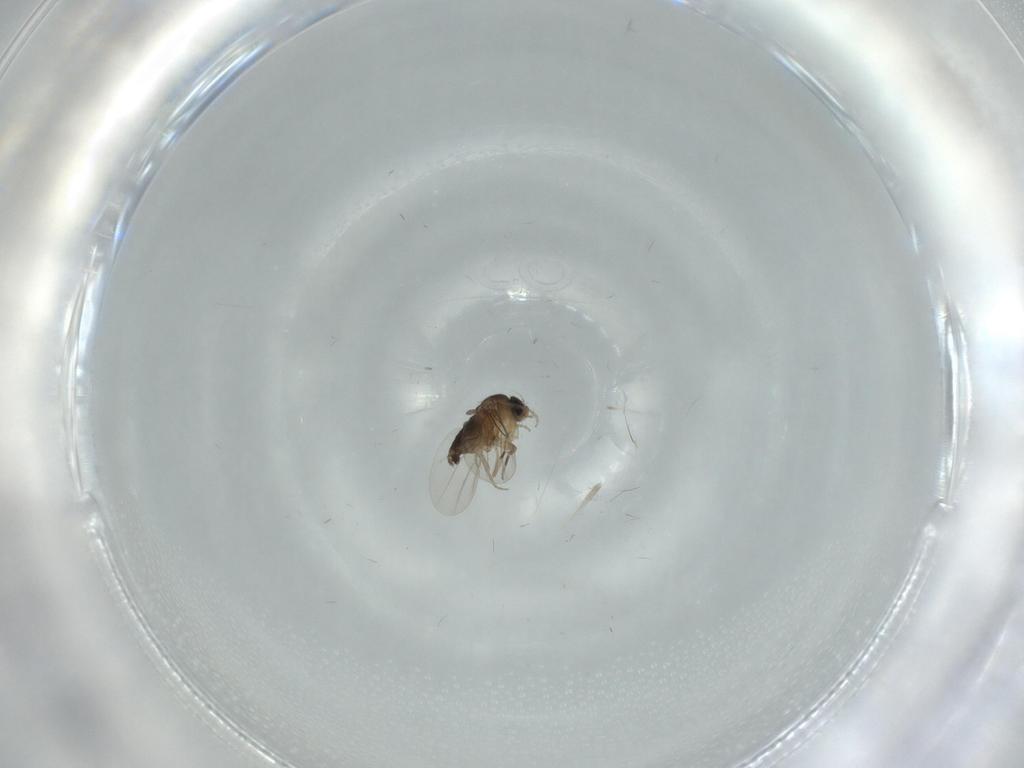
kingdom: Animalia
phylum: Arthropoda
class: Insecta
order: Diptera
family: Phoridae
